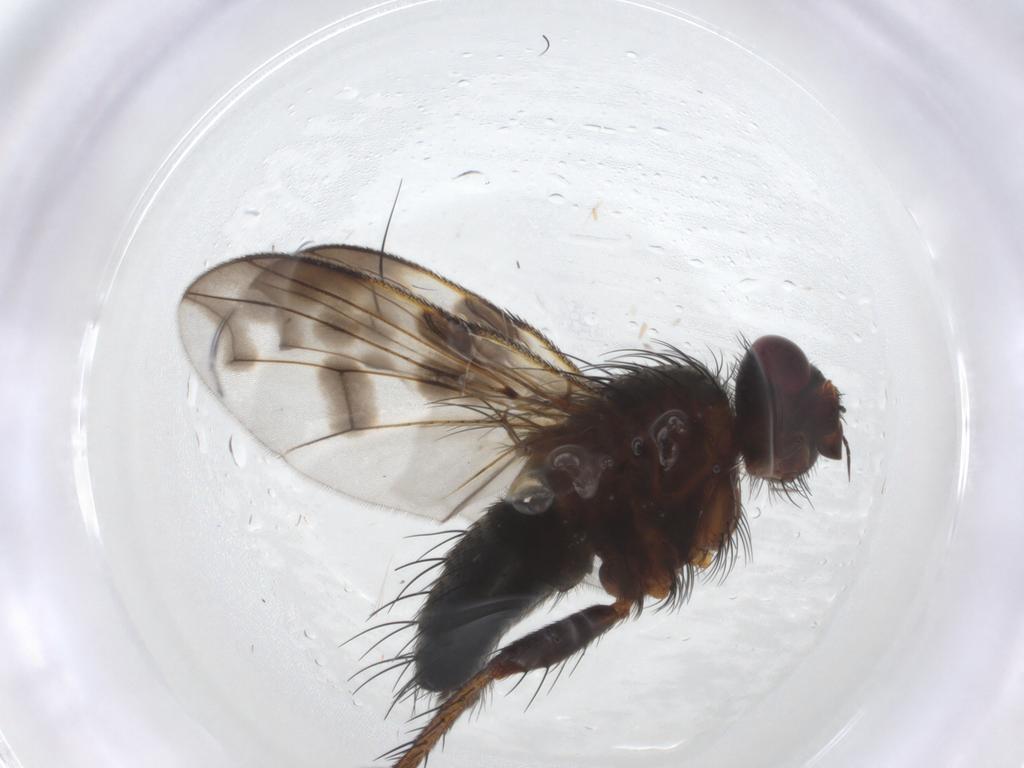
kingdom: Animalia
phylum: Arthropoda
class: Insecta
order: Diptera
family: Tachinidae
